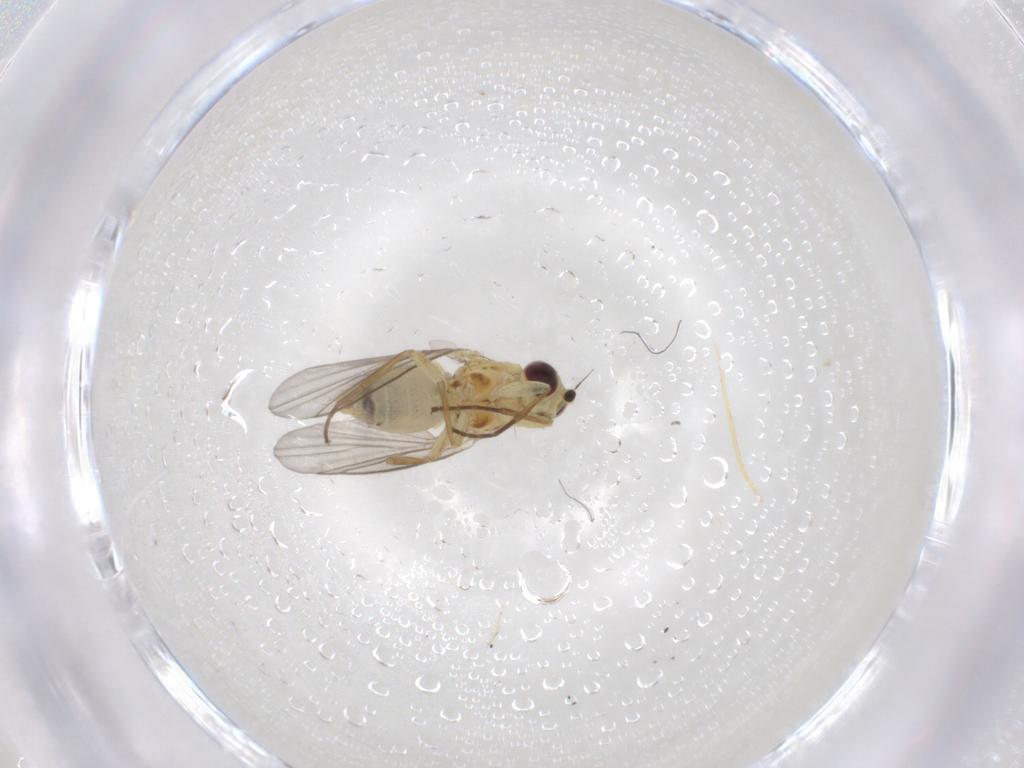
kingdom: Animalia
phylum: Arthropoda
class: Insecta
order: Diptera
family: Agromyzidae
